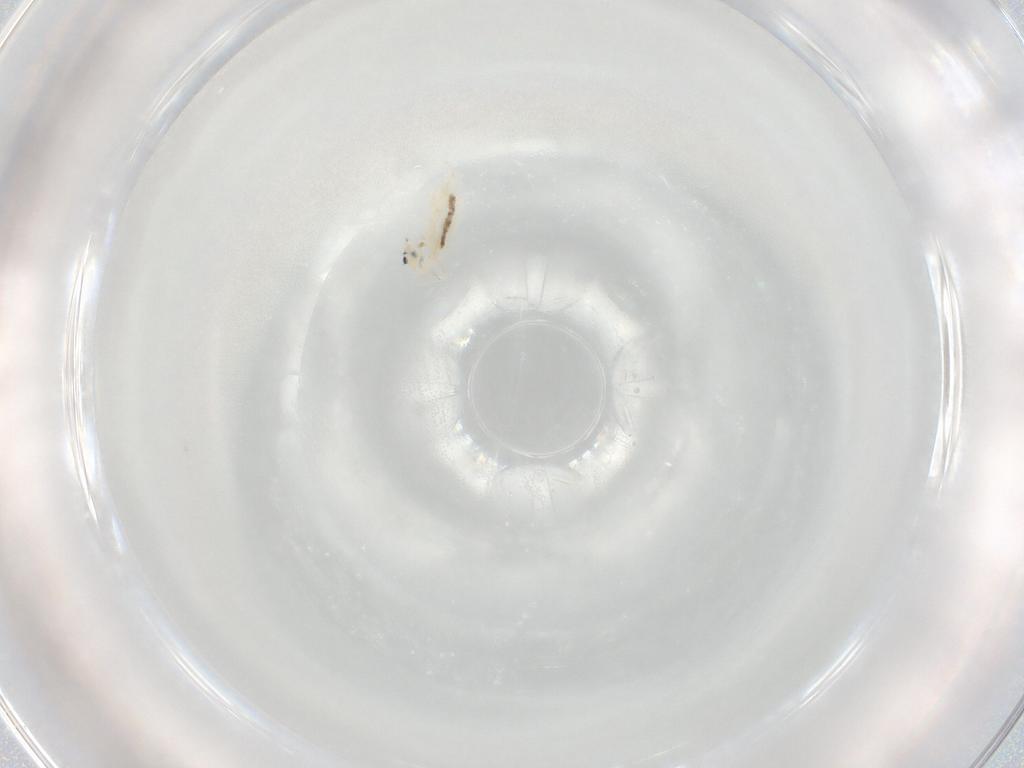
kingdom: Animalia
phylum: Arthropoda
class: Collembola
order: Entomobryomorpha
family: Entomobryidae
